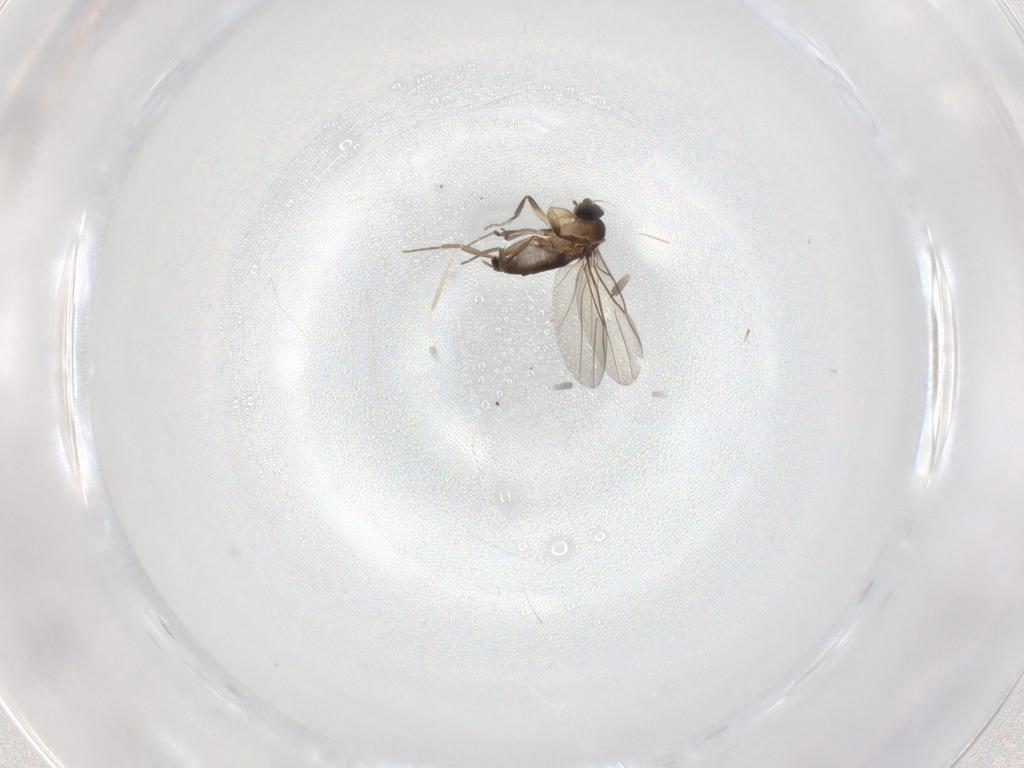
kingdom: Animalia
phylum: Arthropoda
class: Insecta
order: Diptera
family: Phoridae
